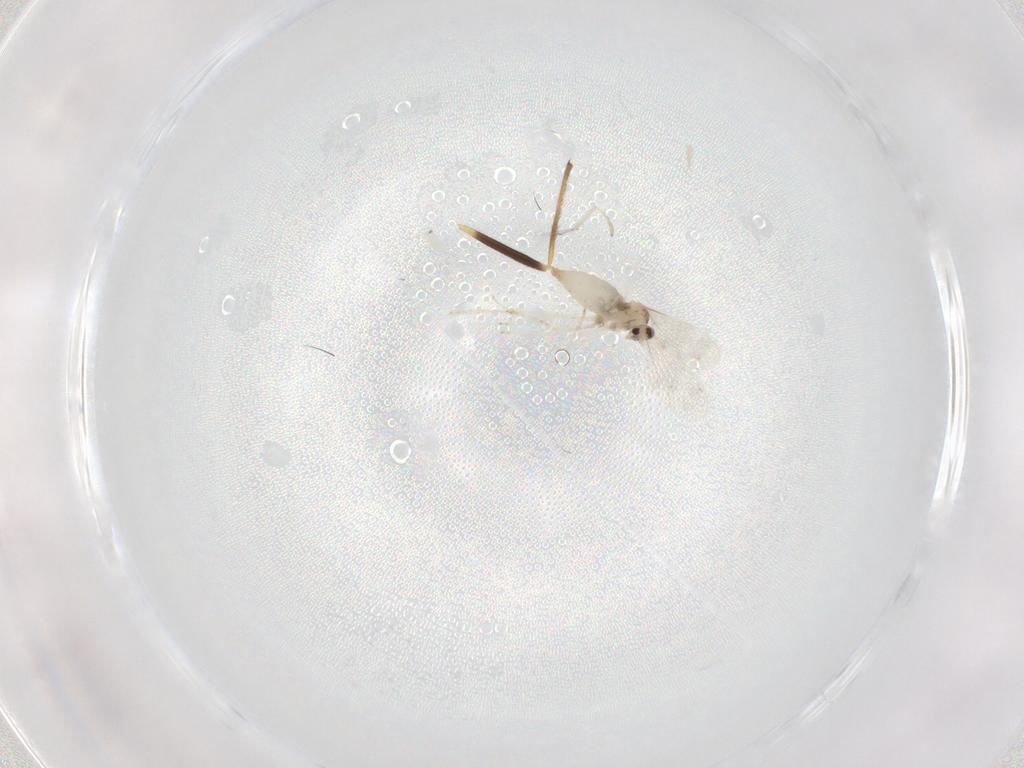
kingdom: Animalia
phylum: Arthropoda
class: Insecta
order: Diptera
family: Cecidomyiidae
